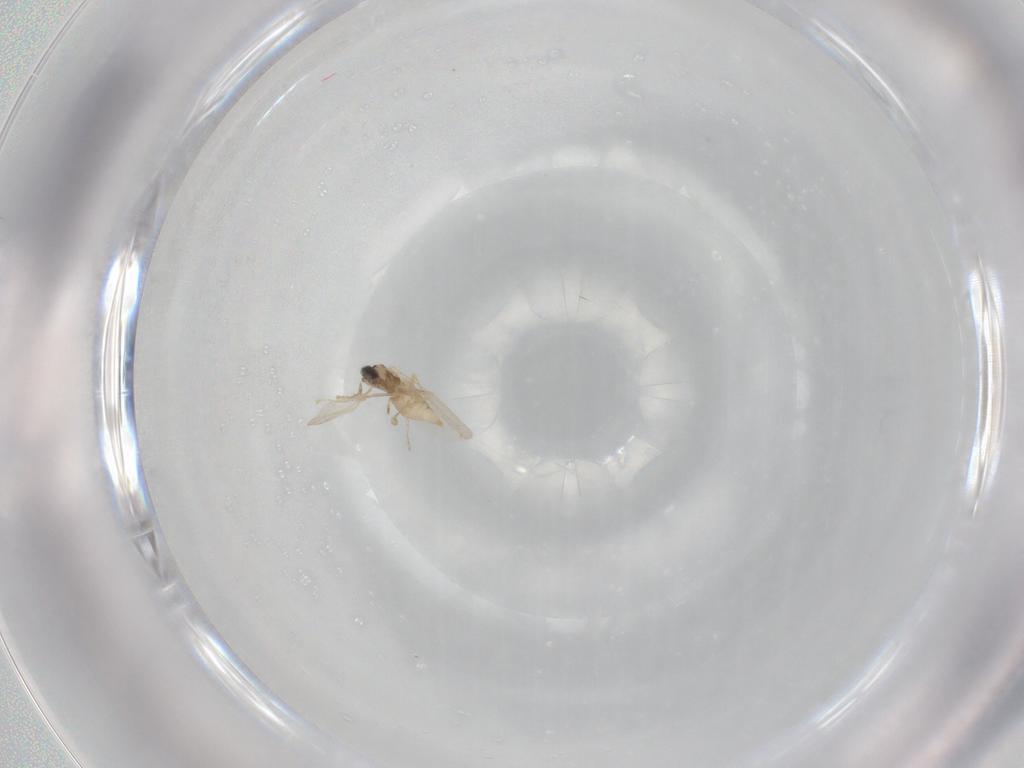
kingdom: Animalia
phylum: Arthropoda
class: Insecta
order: Diptera
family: Cecidomyiidae
